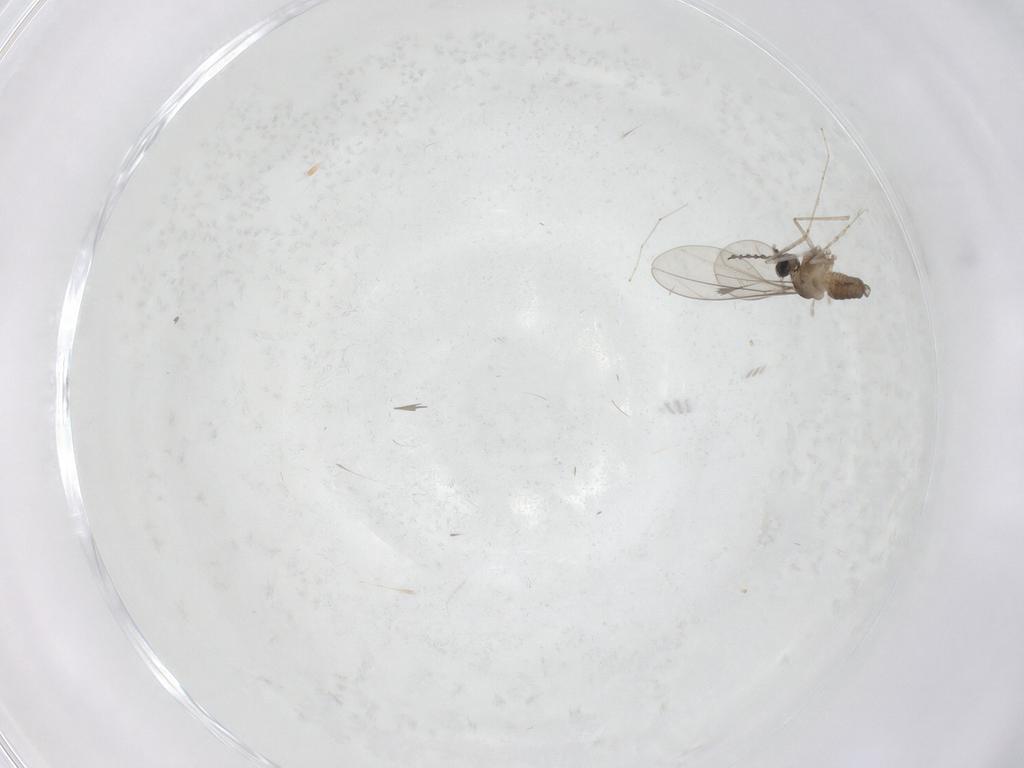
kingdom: Animalia
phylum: Arthropoda
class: Insecta
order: Diptera
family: Cecidomyiidae
